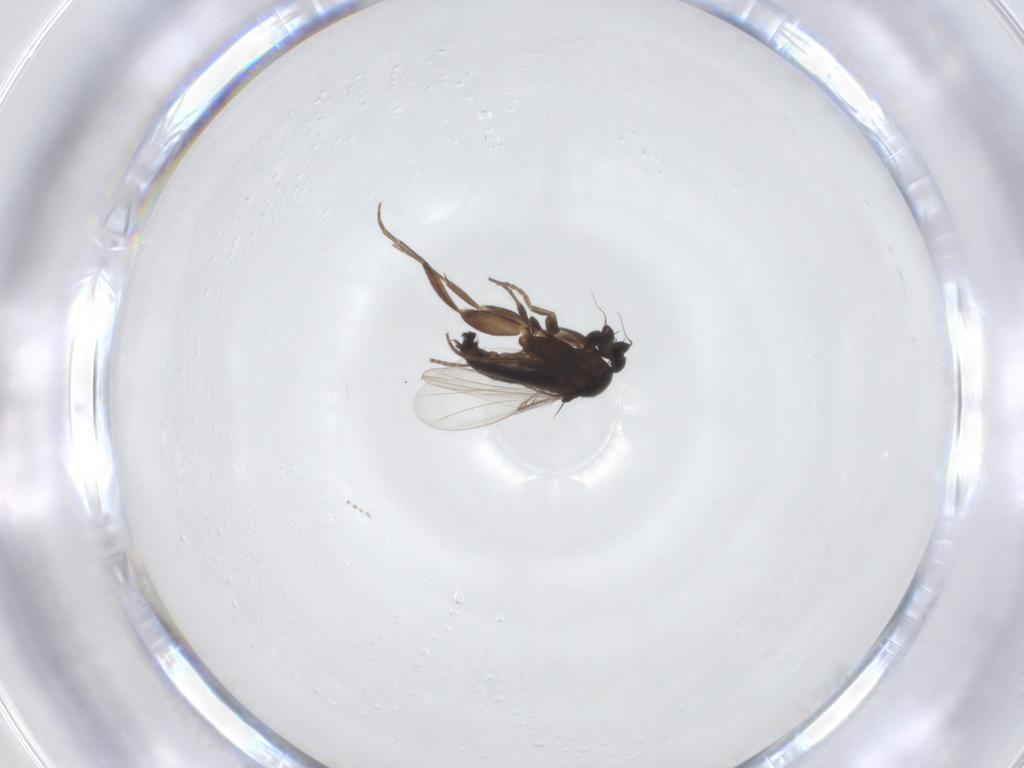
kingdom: Animalia
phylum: Arthropoda
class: Insecta
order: Diptera
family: Cecidomyiidae
